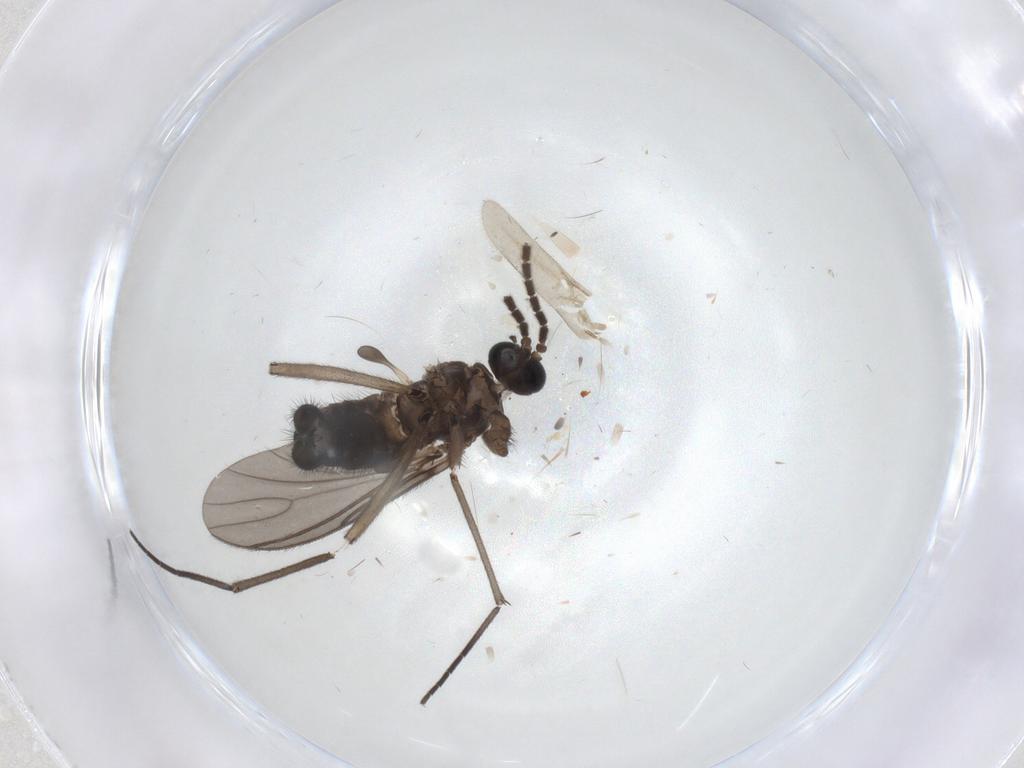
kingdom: Animalia
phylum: Arthropoda
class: Insecta
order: Diptera
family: Sciaridae
